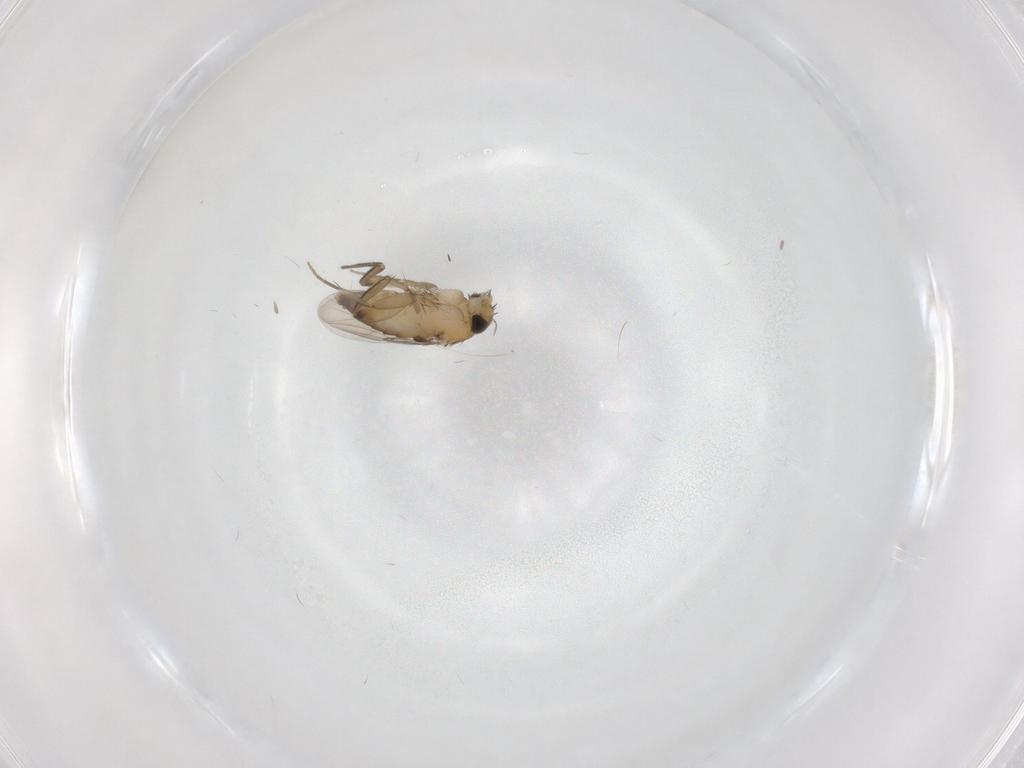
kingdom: Animalia
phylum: Arthropoda
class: Insecta
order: Diptera
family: Phoridae
